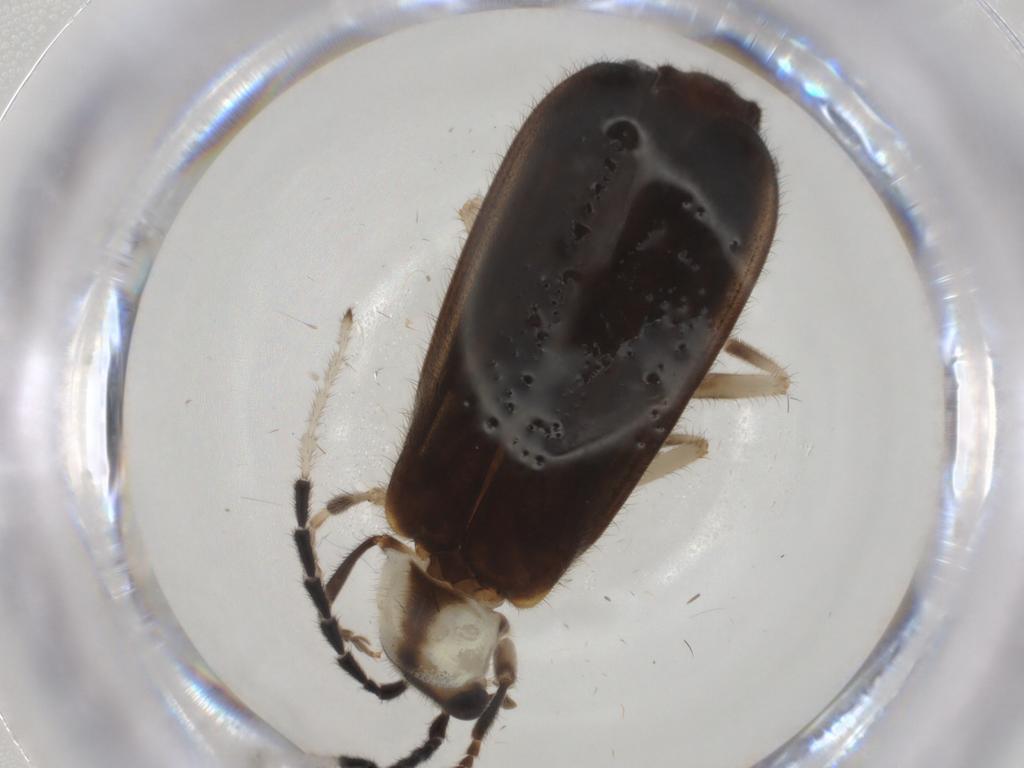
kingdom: Animalia
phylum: Arthropoda
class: Insecta
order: Coleoptera
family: Cantharidae
